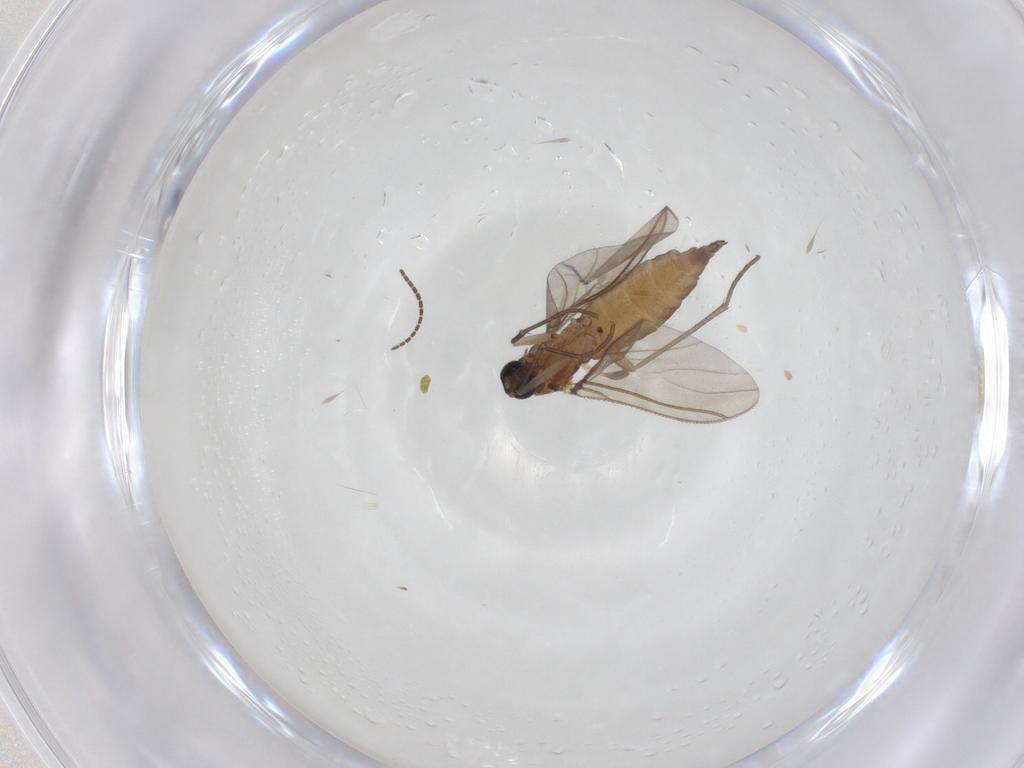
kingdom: Animalia
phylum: Arthropoda
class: Insecta
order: Diptera
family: Sciaridae
